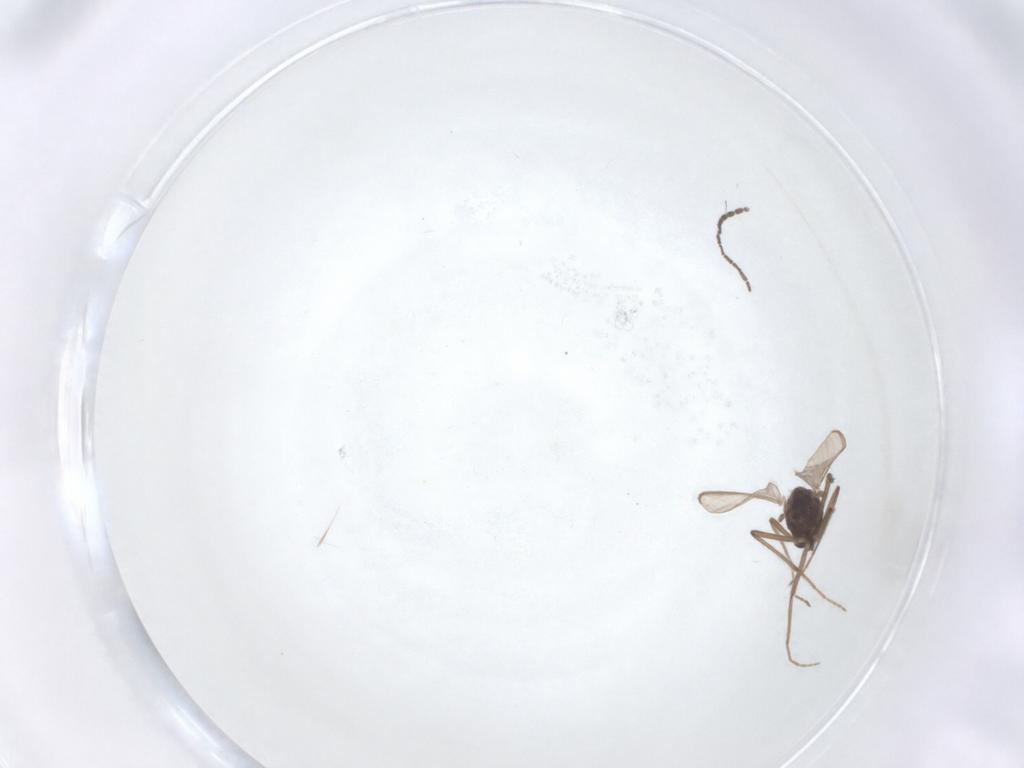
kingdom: Animalia
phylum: Arthropoda
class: Insecta
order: Diptera
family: Sciaridae
